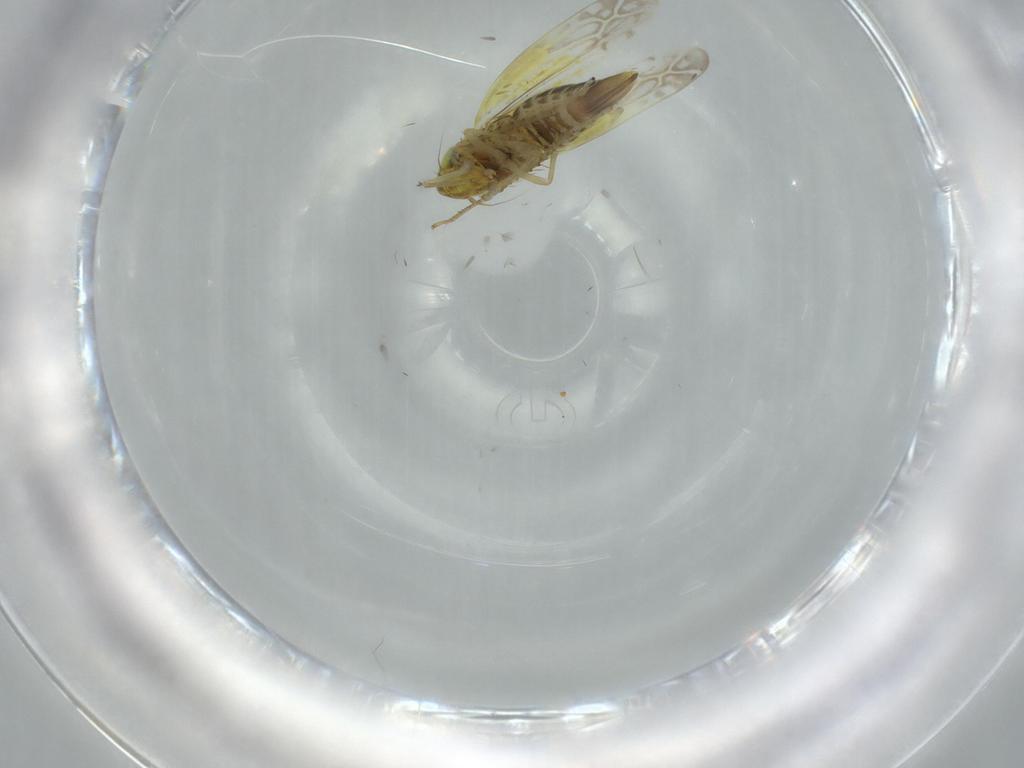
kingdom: Animalia
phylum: Arthropoda
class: Insecta
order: Hemiptera
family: Cicadellidae
